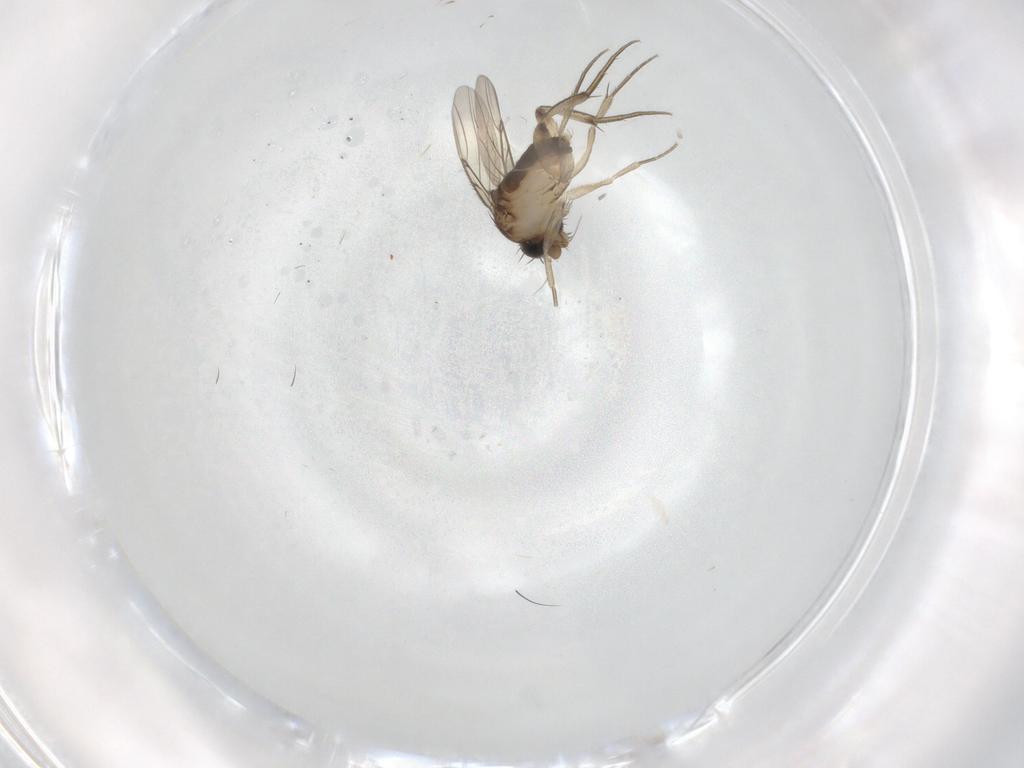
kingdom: Animalia
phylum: Arthropoda
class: Insecta
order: Diptera
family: Phoridae
